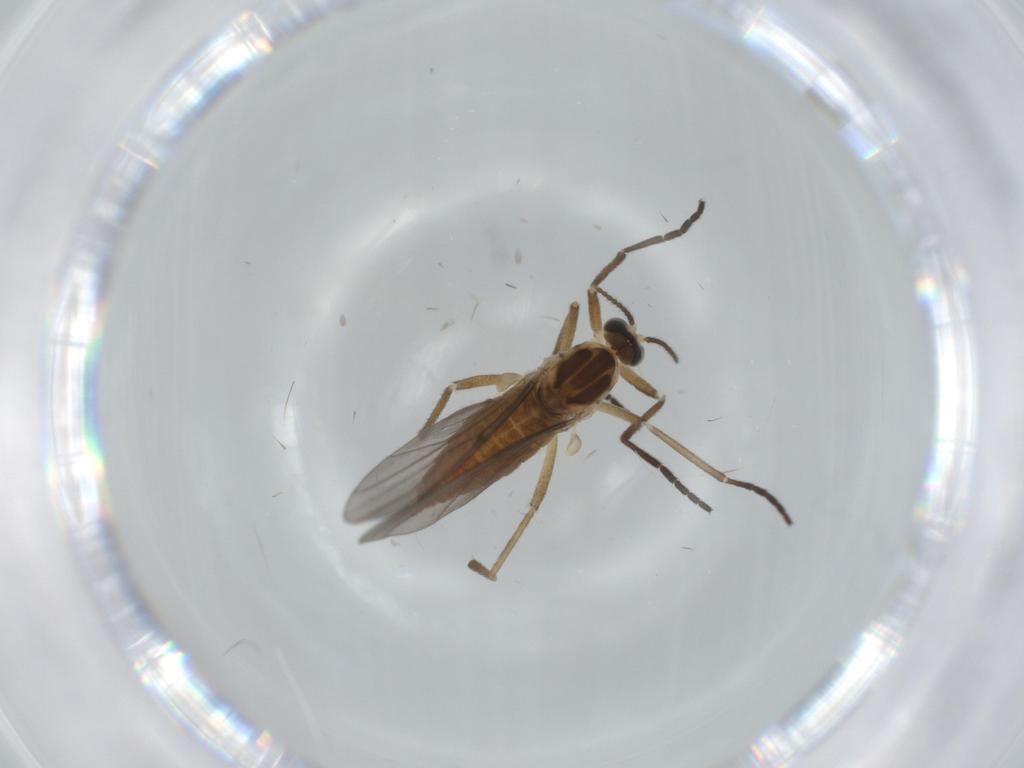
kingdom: Animalia
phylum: Arthropoda
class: Insecta
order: Diptera
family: Cecidomyiidae
